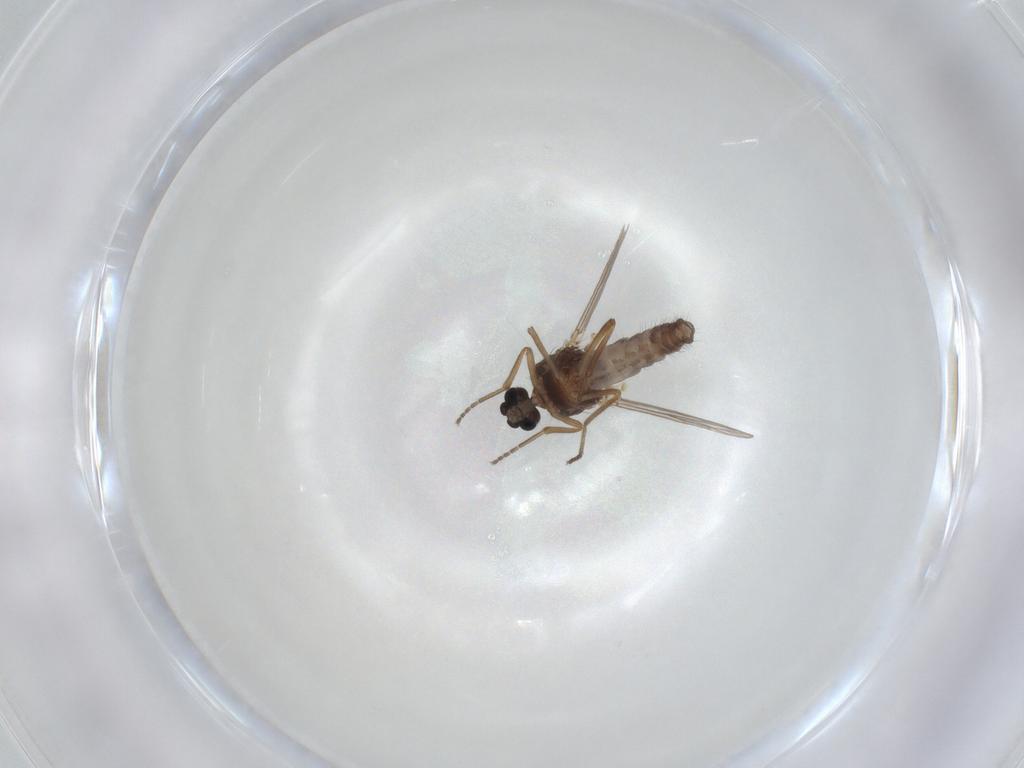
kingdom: Animalia
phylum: Arthropoda
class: Insecta
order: Diptera
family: Ceratopogonidae
